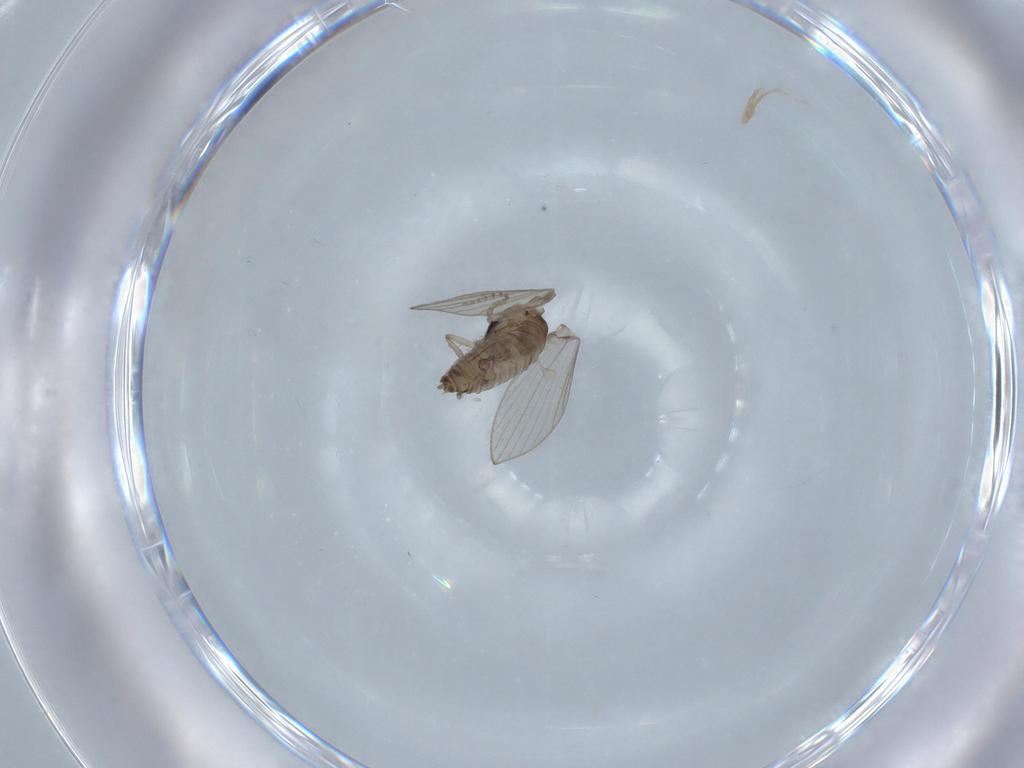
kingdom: Animalia
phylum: Arthropoda
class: Insecta
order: Diptera
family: Psychodidae
